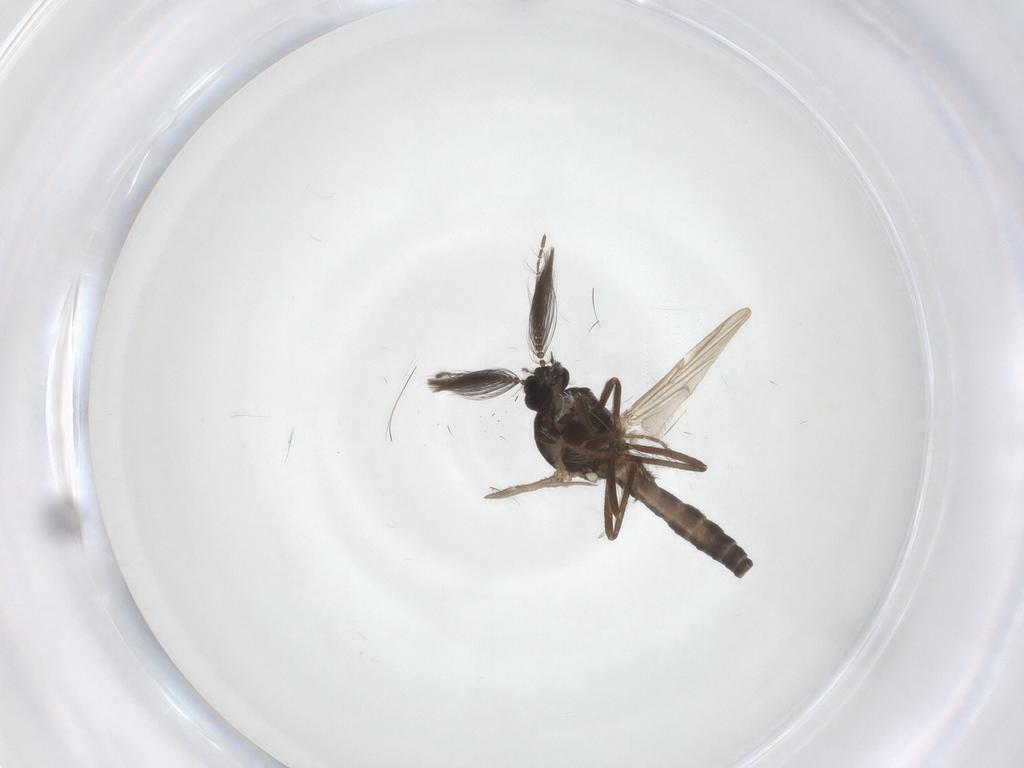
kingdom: Animalia
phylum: Arthropoda
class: Insecta
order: Diptera
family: Ceratopogonidae
